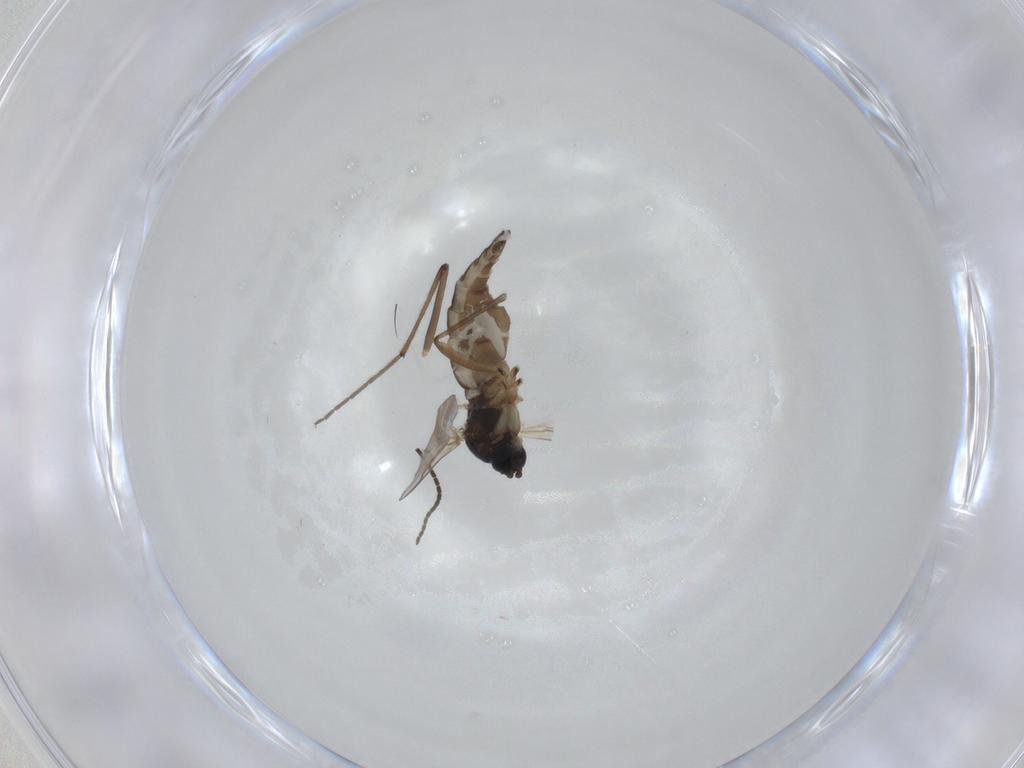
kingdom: Animalia
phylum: Arthropoda
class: Insecta
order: Diptera
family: Chironomidae
